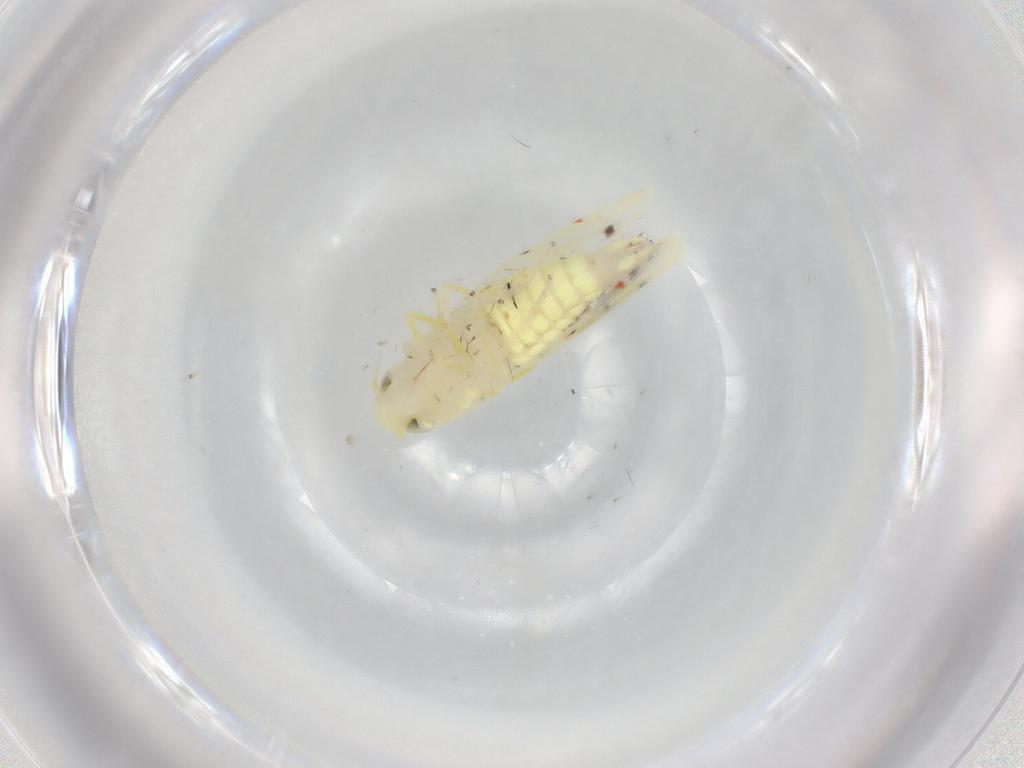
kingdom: Animalia
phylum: Arthropoda
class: Insecta
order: Hemiptera
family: Cicadellidae
